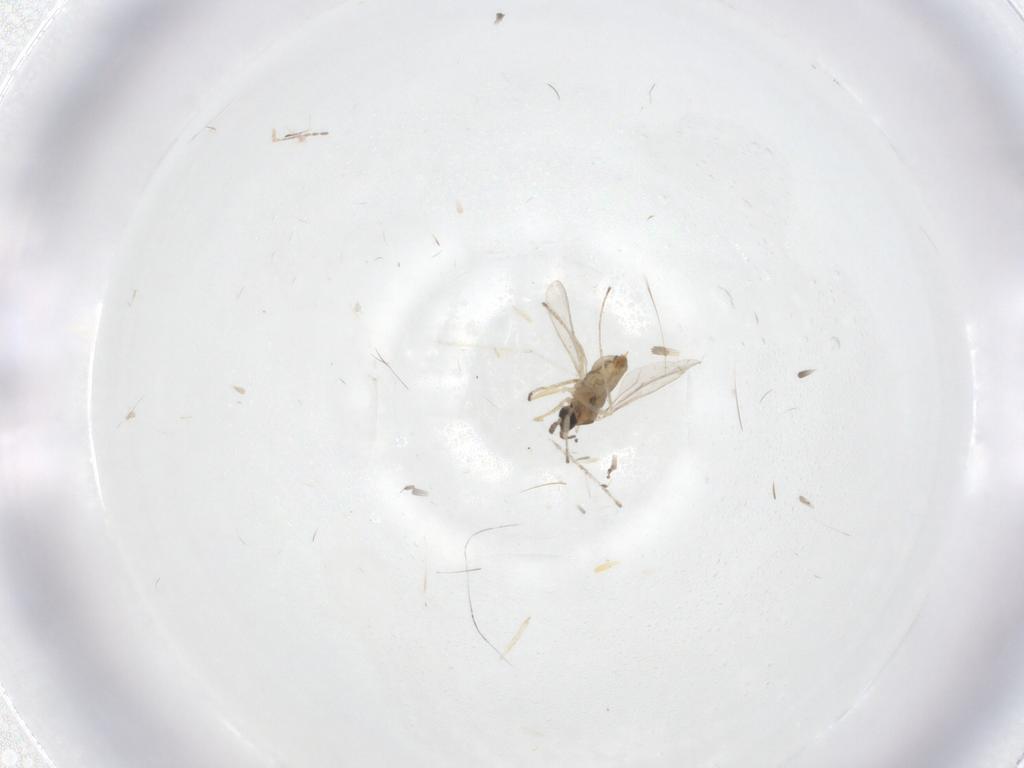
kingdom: Animalia
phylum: Arthropoda
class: Insecta
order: Diptera
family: Cecidomyiidae
